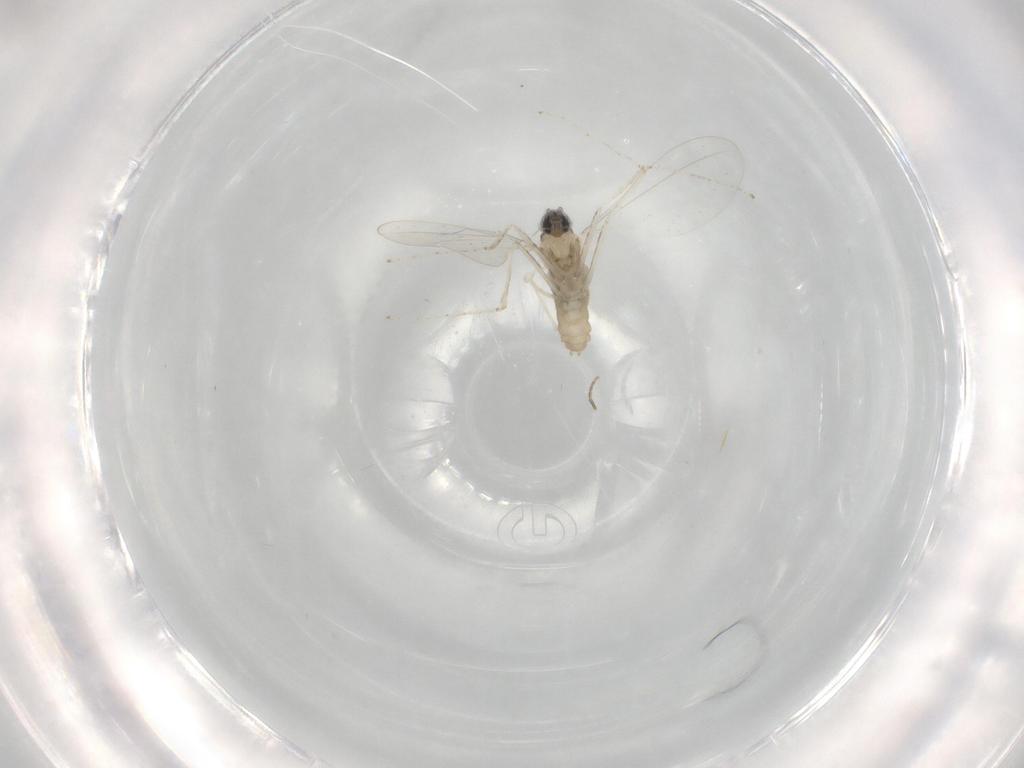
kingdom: Animalia
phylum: Arthropoda
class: Insecta
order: Diptera
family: Cecidomyiidae
